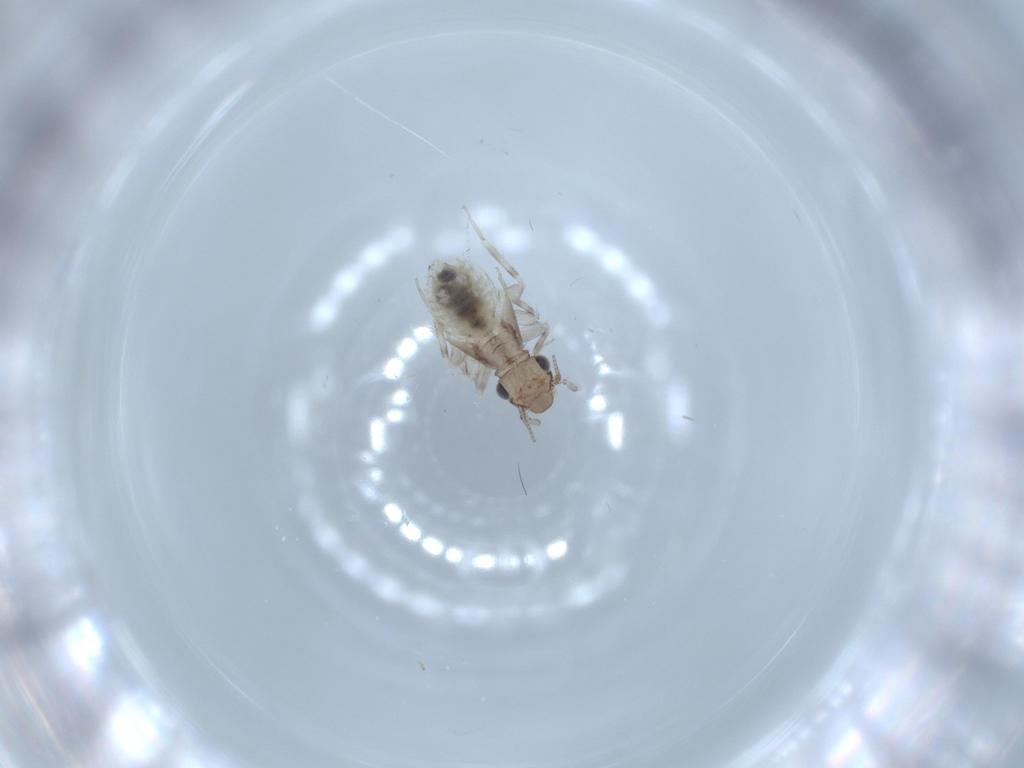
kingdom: Animalia
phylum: Arthropoda
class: Insecta
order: Psocodea
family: Lepidopsocidae
